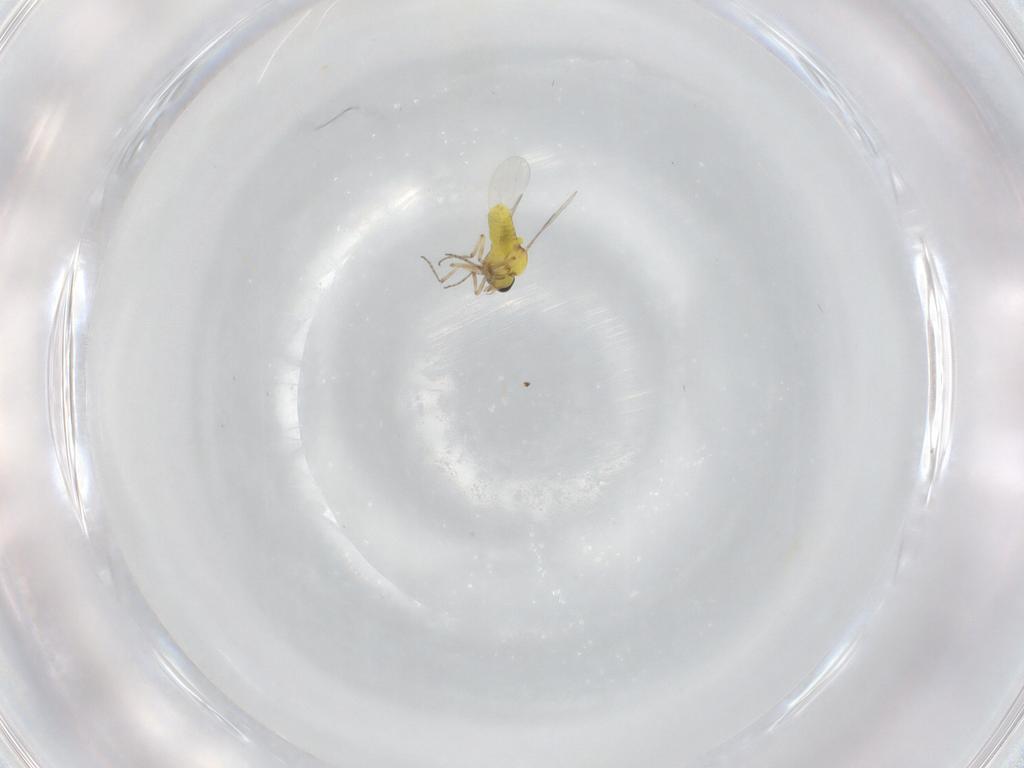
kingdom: Animalia
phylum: Arthropoda
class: Insecta
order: Diptera
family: Ceratopogonidae
